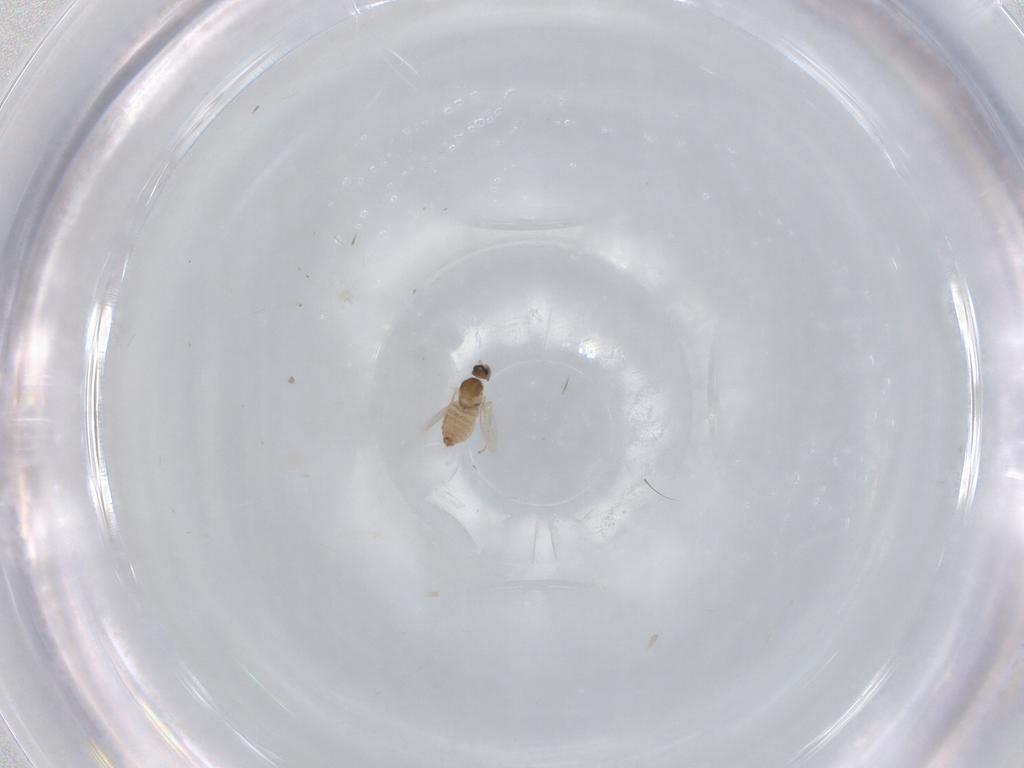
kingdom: Animalia
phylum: Arthropoda
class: Insecta
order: Diptera
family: Cecidomyiidae
